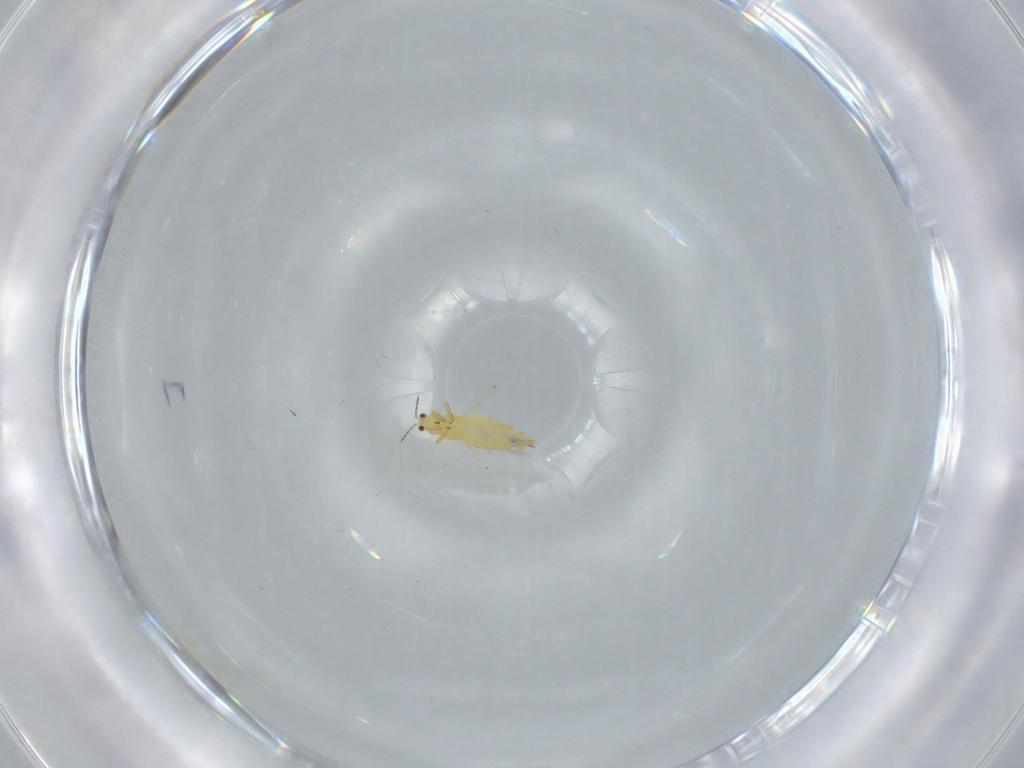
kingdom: Animalia
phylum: Arthropoda
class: Insecta
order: Thysanoptera
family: Thripidae
